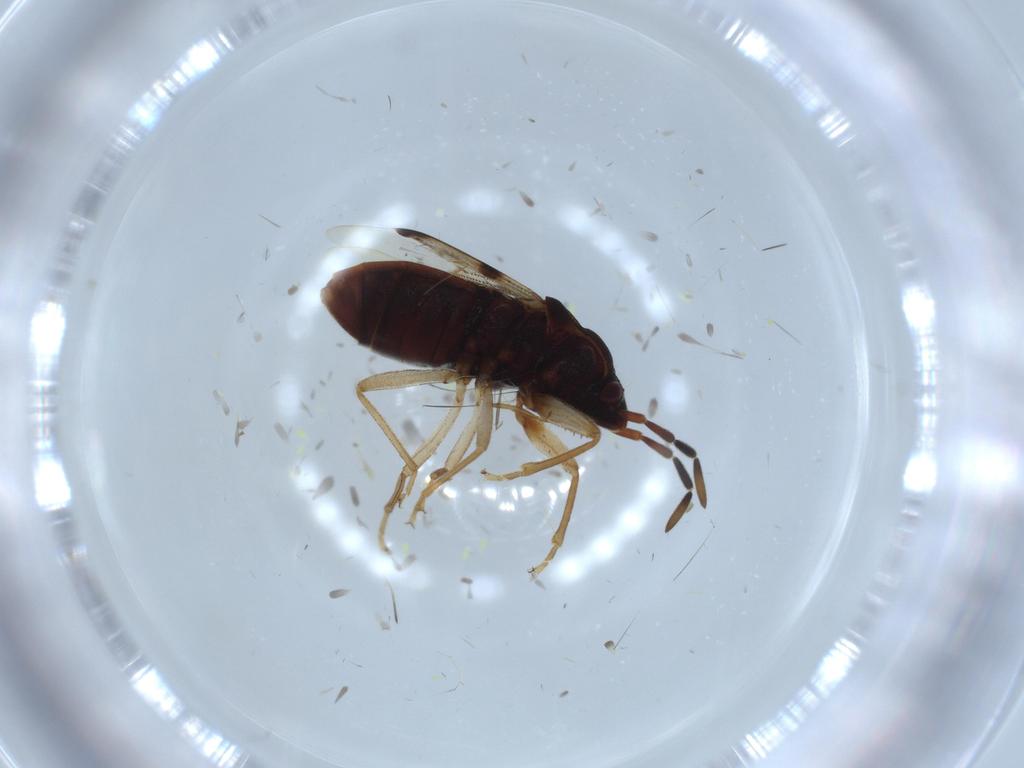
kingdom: Animalia
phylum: Arthropoda
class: Insecta
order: Hemiptera
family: Rhyparochromidae
